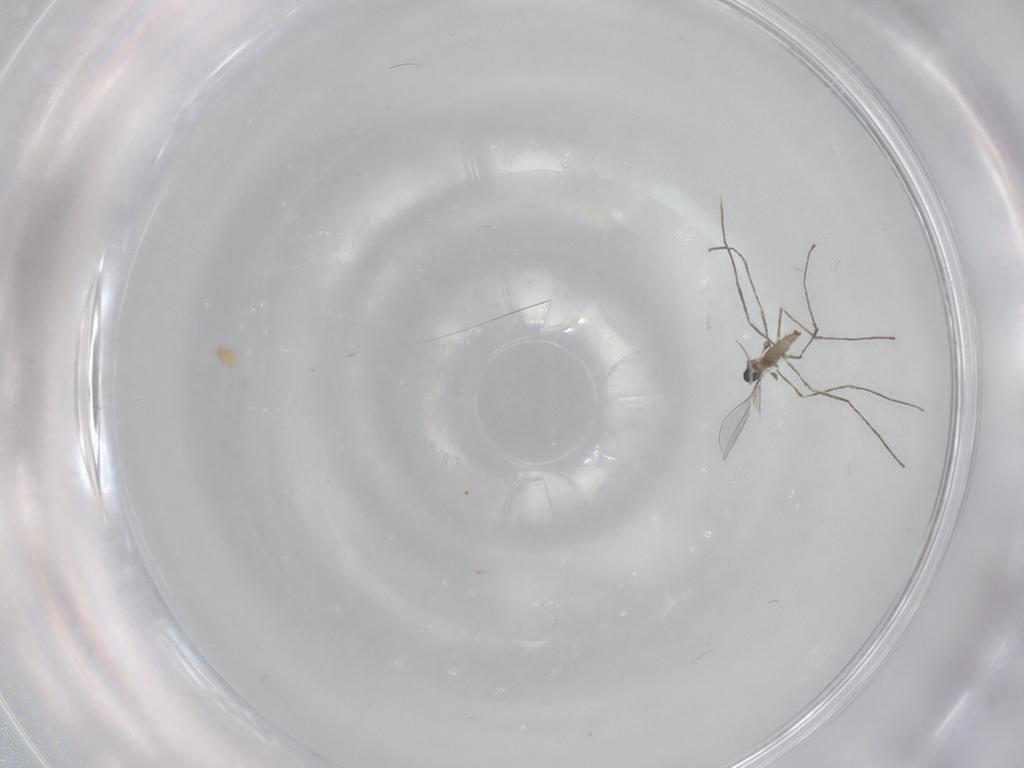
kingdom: Animalia
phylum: Arthropoda
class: Insecta
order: Diptera
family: Cecidomyiidae
